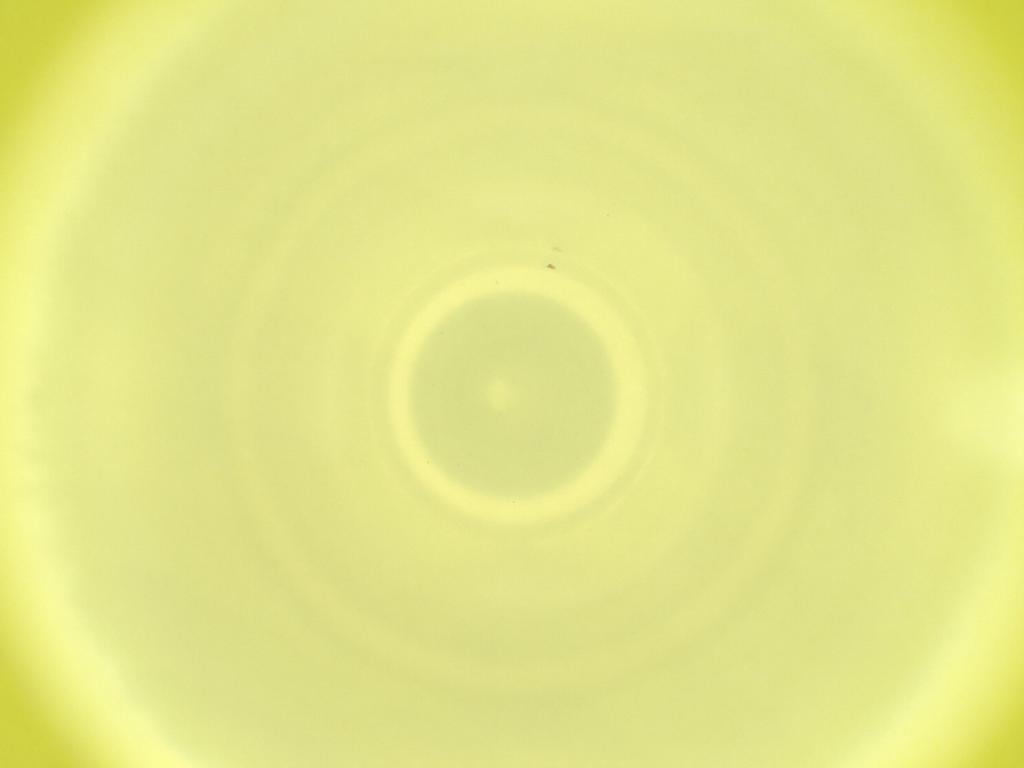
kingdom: Animalia
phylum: Arthropoda
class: Insecta
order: Diptera
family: Cecidomyiidae
